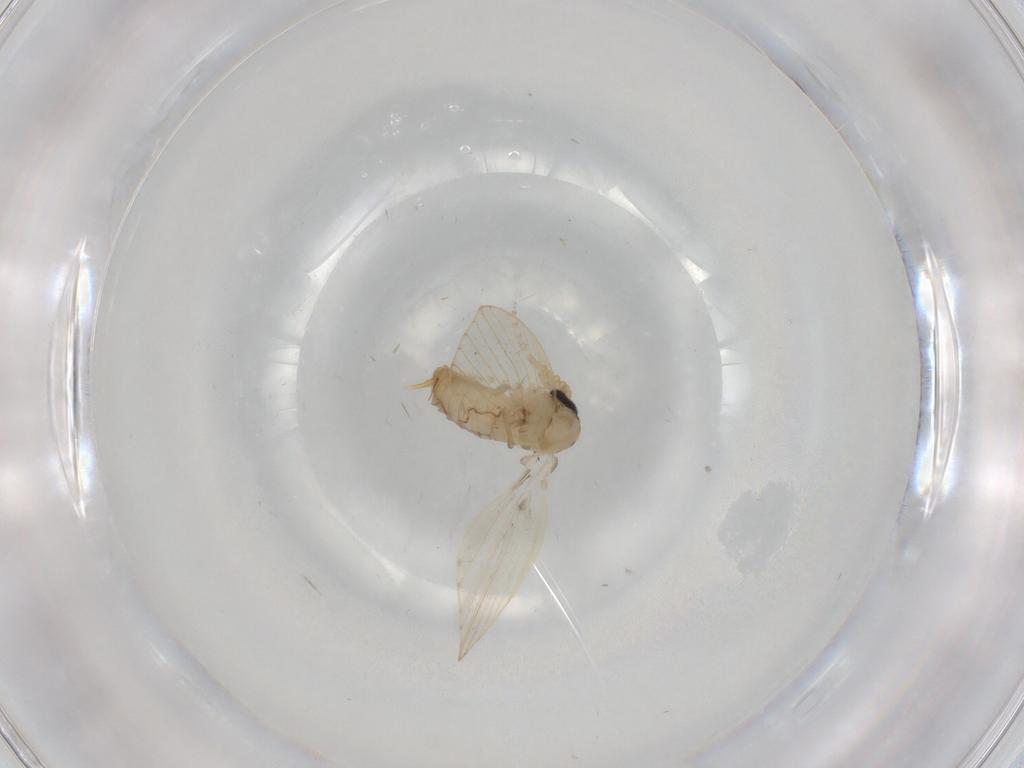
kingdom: Animalia
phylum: Arthropoda
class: Insecta
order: Diptera
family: Psychodidae
